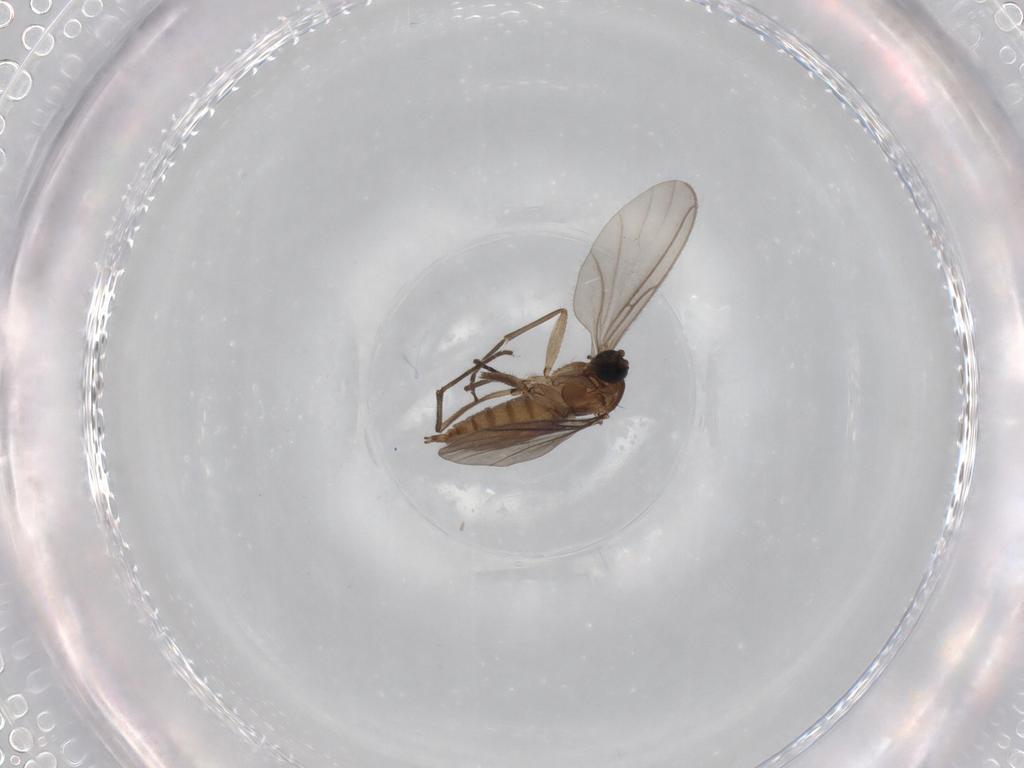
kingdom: Animalia
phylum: Arthropoda
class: Insecta
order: Diptera
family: Sciaridae
